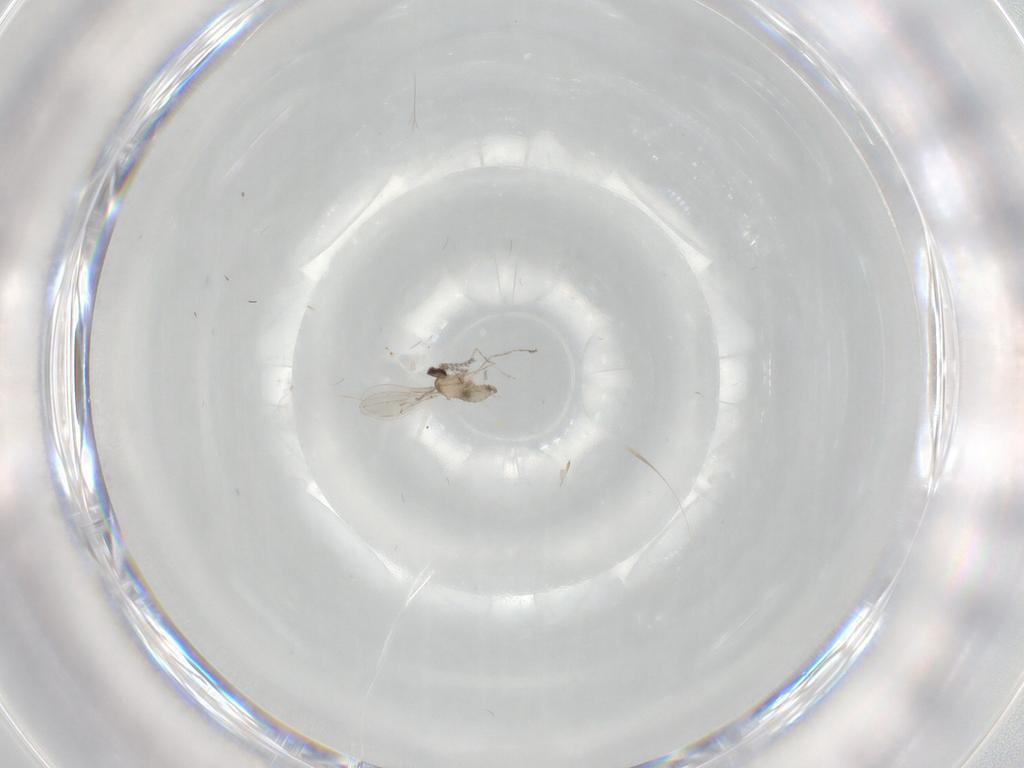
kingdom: Animalia
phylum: Arthropoda
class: Insecta
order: Diptera
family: Cecidomyiidae
